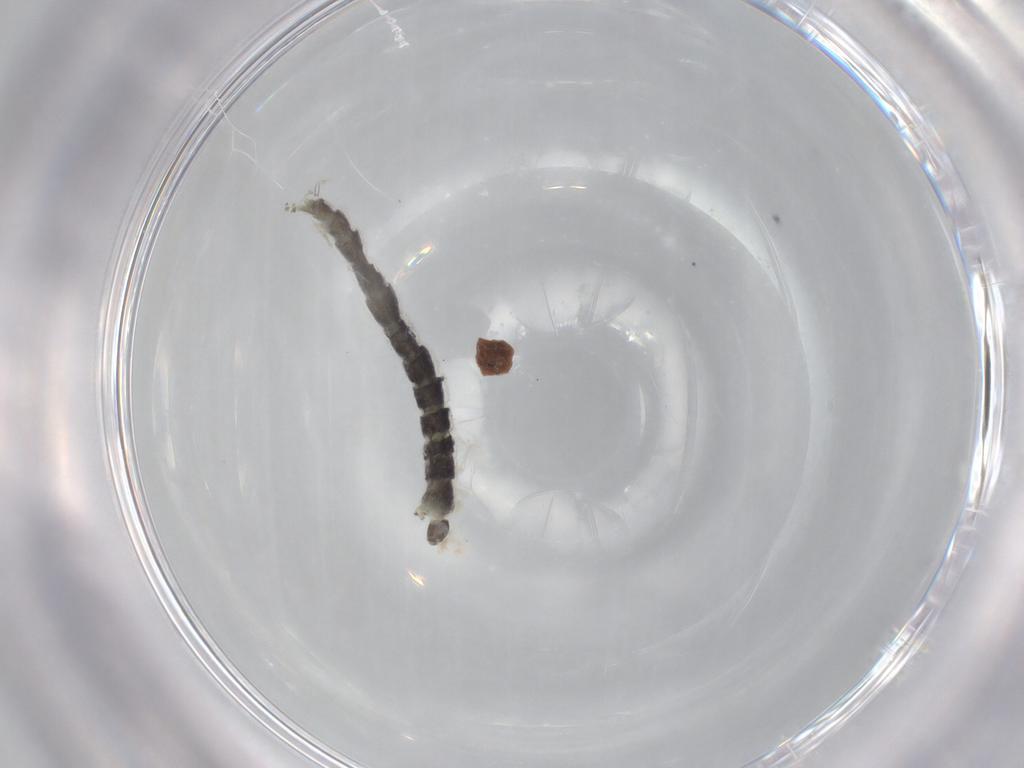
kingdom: Animalia
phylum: Arthropoda
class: Insecta
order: Diptera
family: Chironomidae
